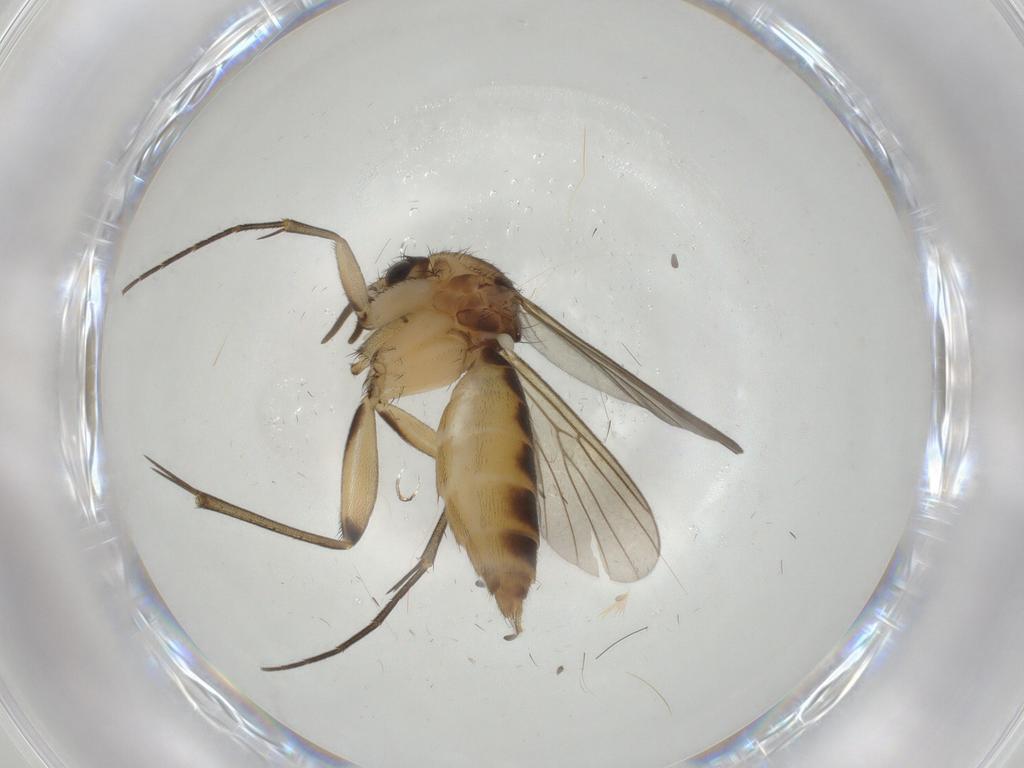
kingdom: Animalia
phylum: Arthropoda
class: Insecta
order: Diptera
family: Mycetophilidae
